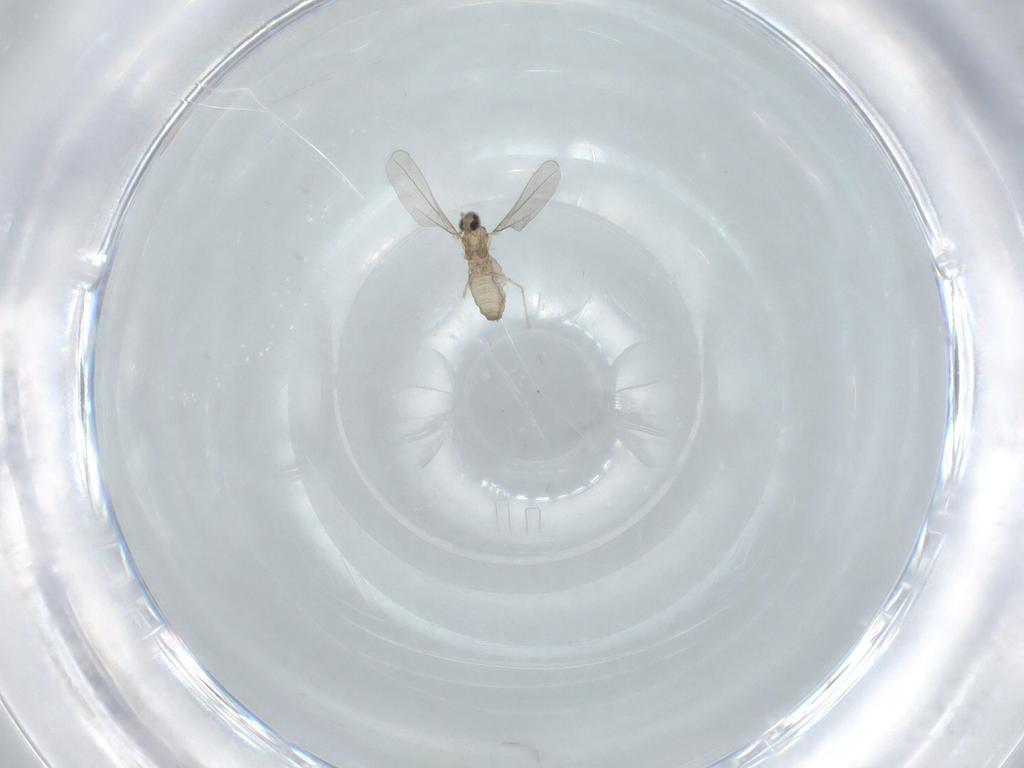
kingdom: Animalia
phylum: Arthropoda
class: Insecta
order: Diptera
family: Cecidomyiidae
